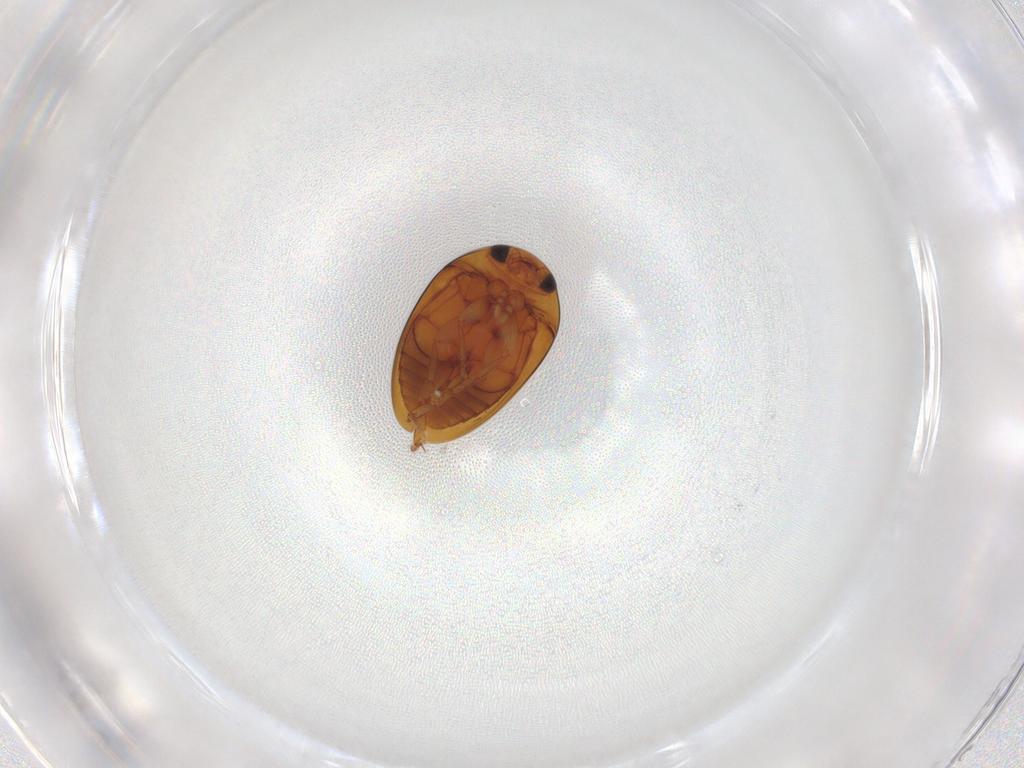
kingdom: Animalia
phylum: Arthropoda
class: Insecta
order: Coleoptera
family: Phalacridae
